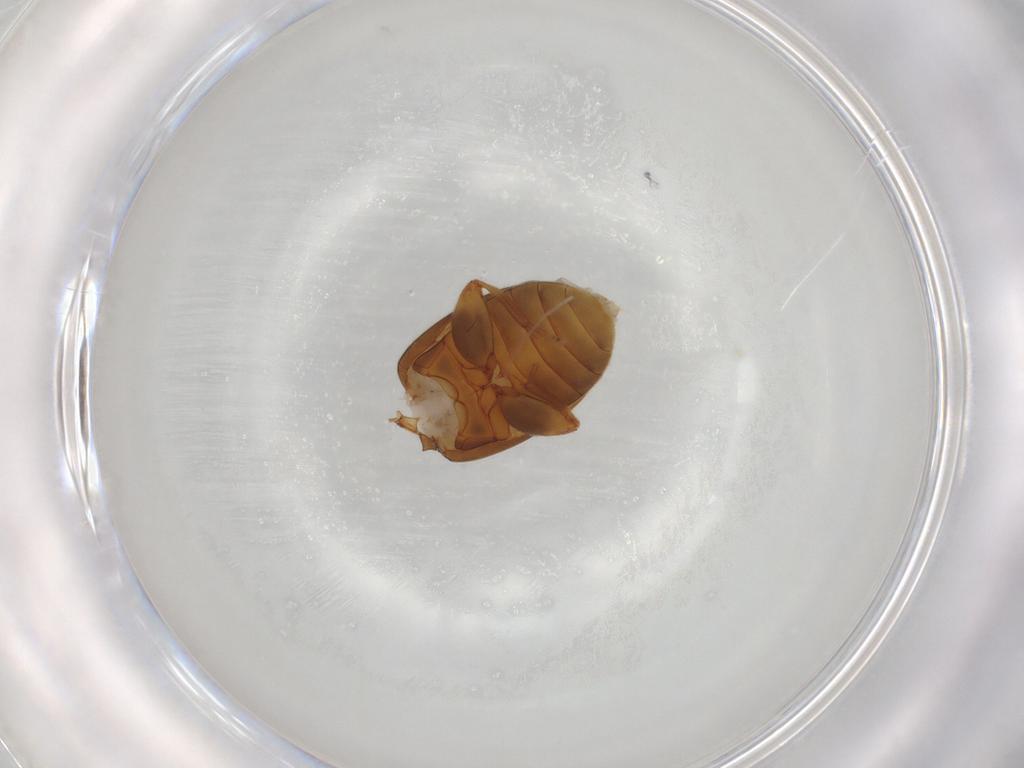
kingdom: Animalia
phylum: Arthropoda
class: Insecta
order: Coleoptera
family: Scirtidae
